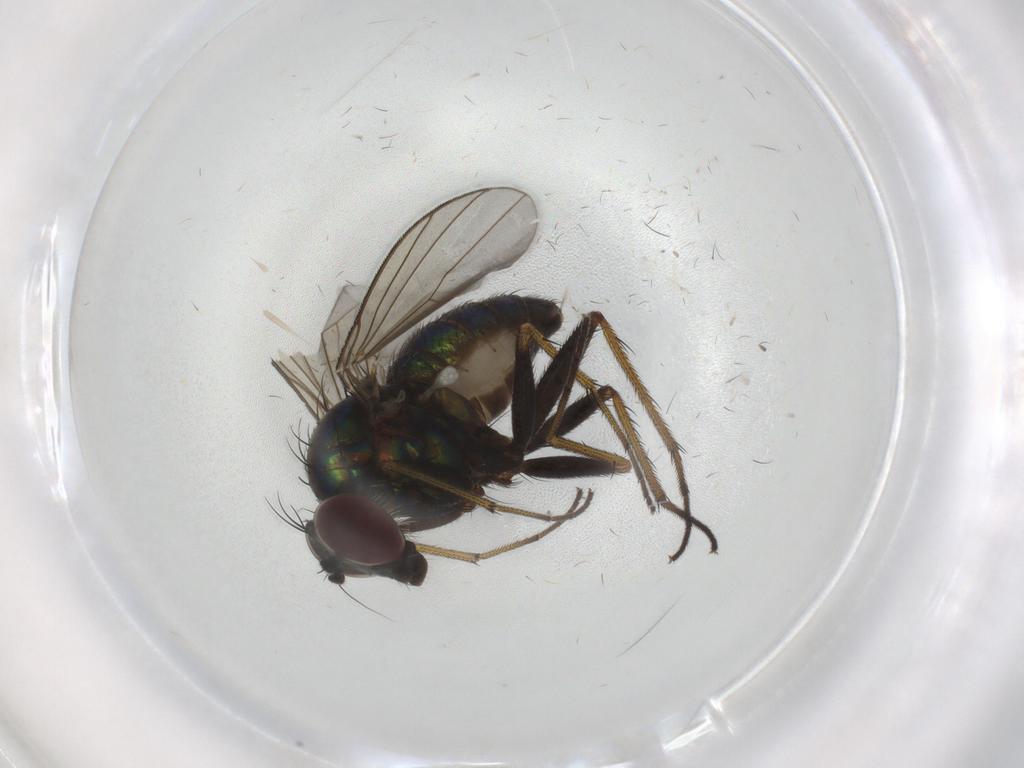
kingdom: Animalia
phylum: Arthropoda
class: Insecta
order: Diptera
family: Dolichopodidae
